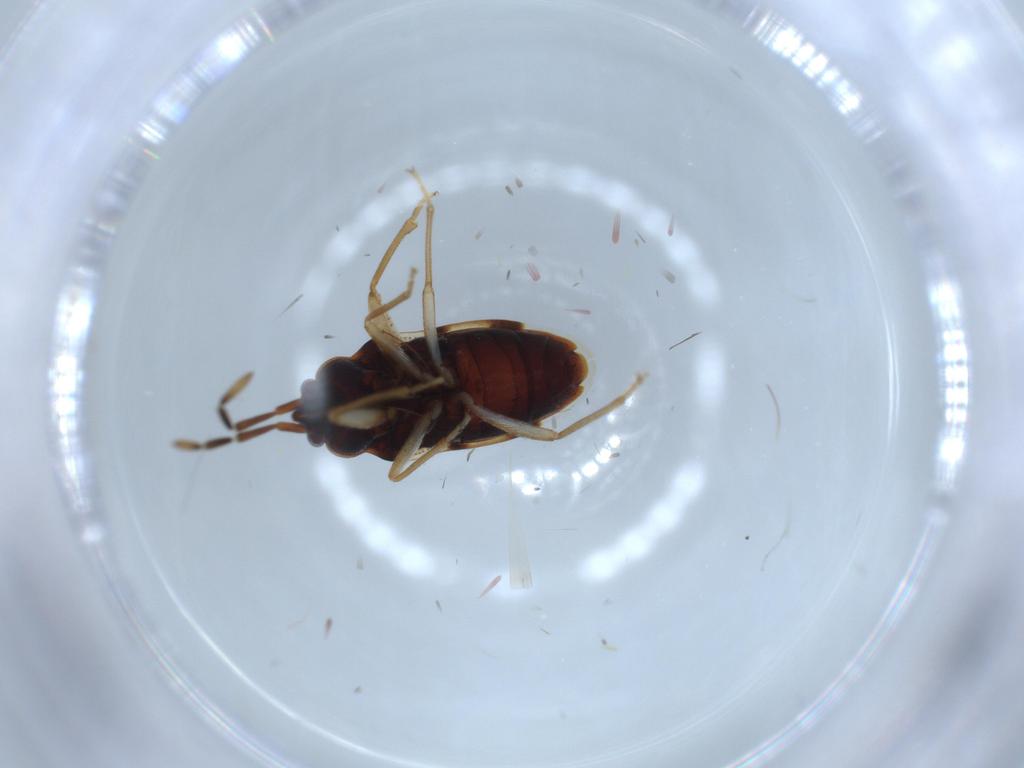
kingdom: Animalia
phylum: Arthropoda
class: Insecta
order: Hemiptera
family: Rhyparochromidae
